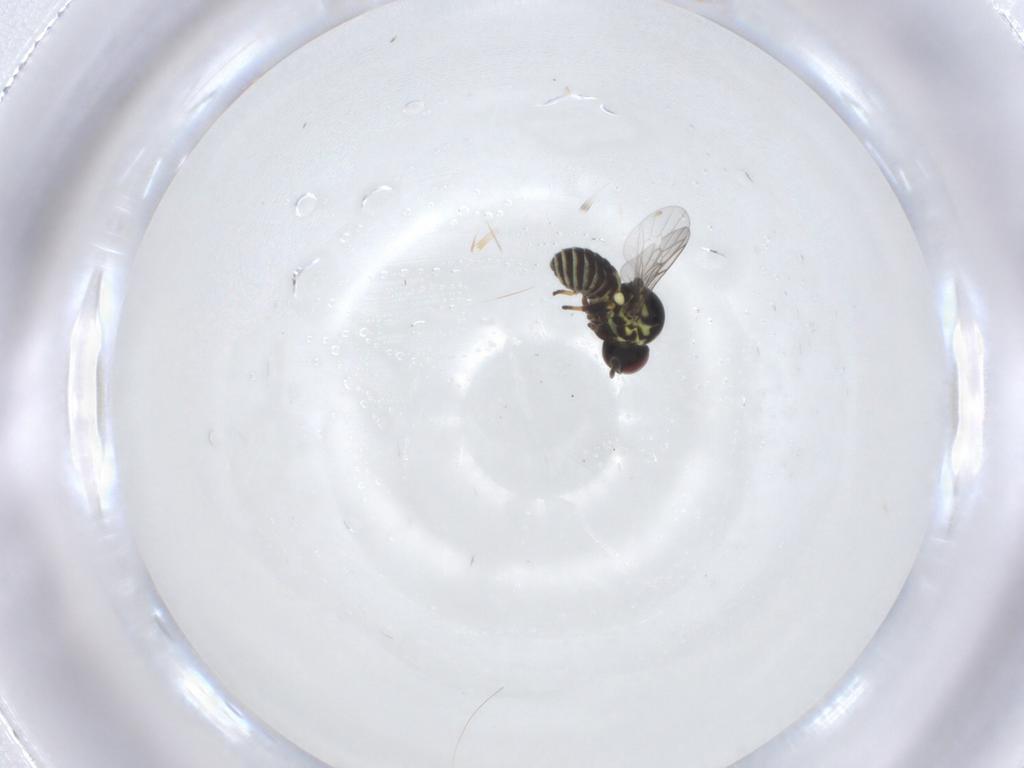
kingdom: Animalia
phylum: Arthropoda
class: Insecta
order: Diptera
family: Mythicomyiidae
